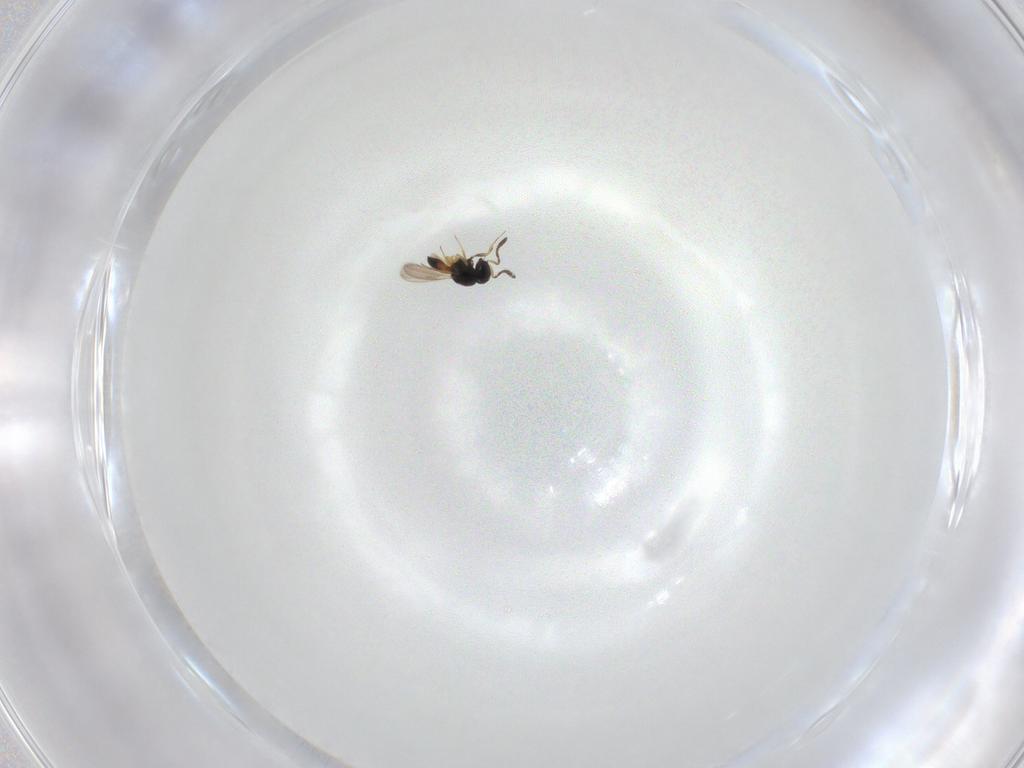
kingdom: Animalia
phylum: Arthropoda
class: Insecta
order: Hymenoptera
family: Scelionidae
